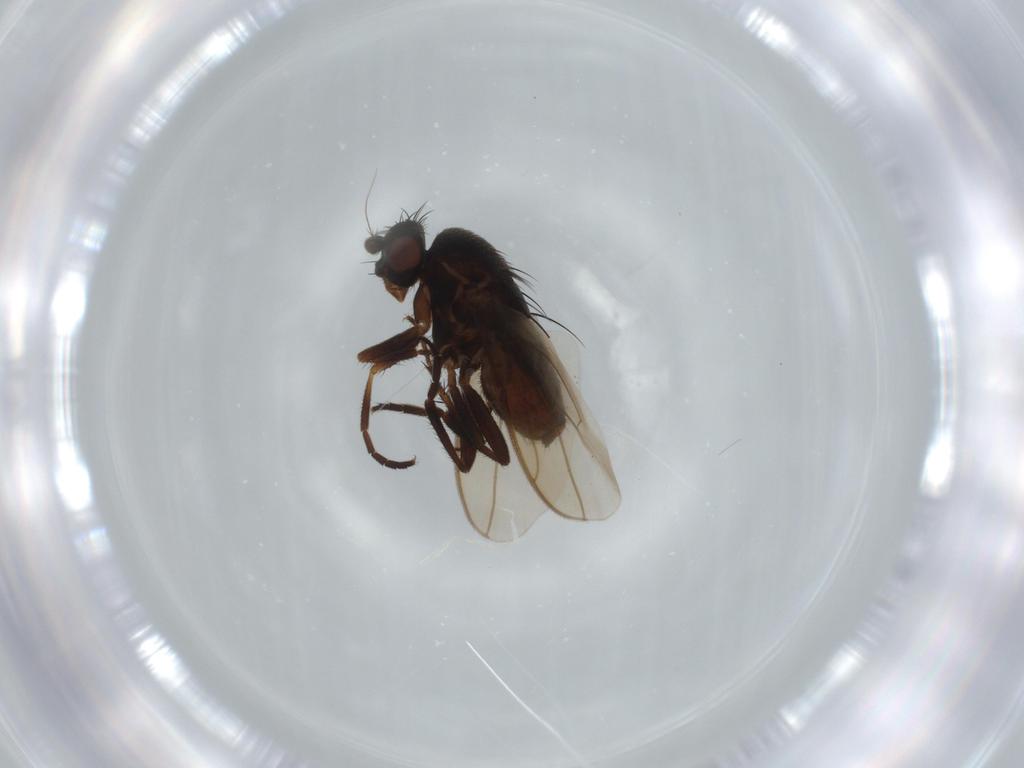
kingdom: Animalia
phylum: Arthropoda
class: Insecta
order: Diptera
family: Sphaeroceridae
